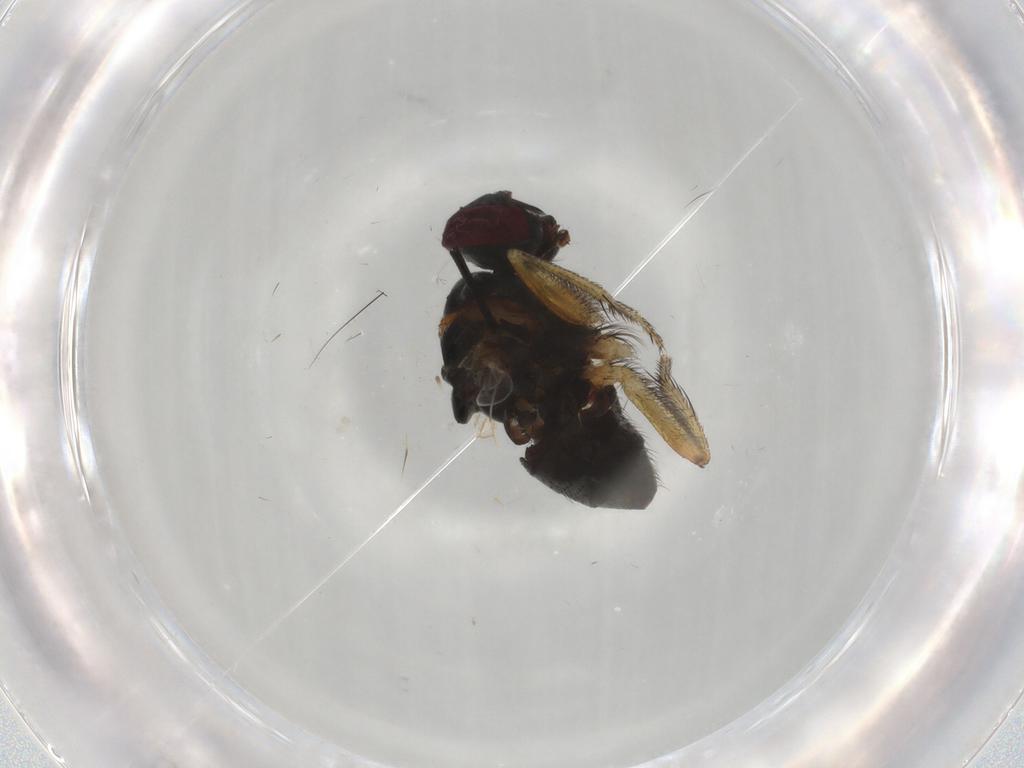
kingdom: Animalia
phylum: Arthropoda
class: Insecta
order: Diptera
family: Muscidae
